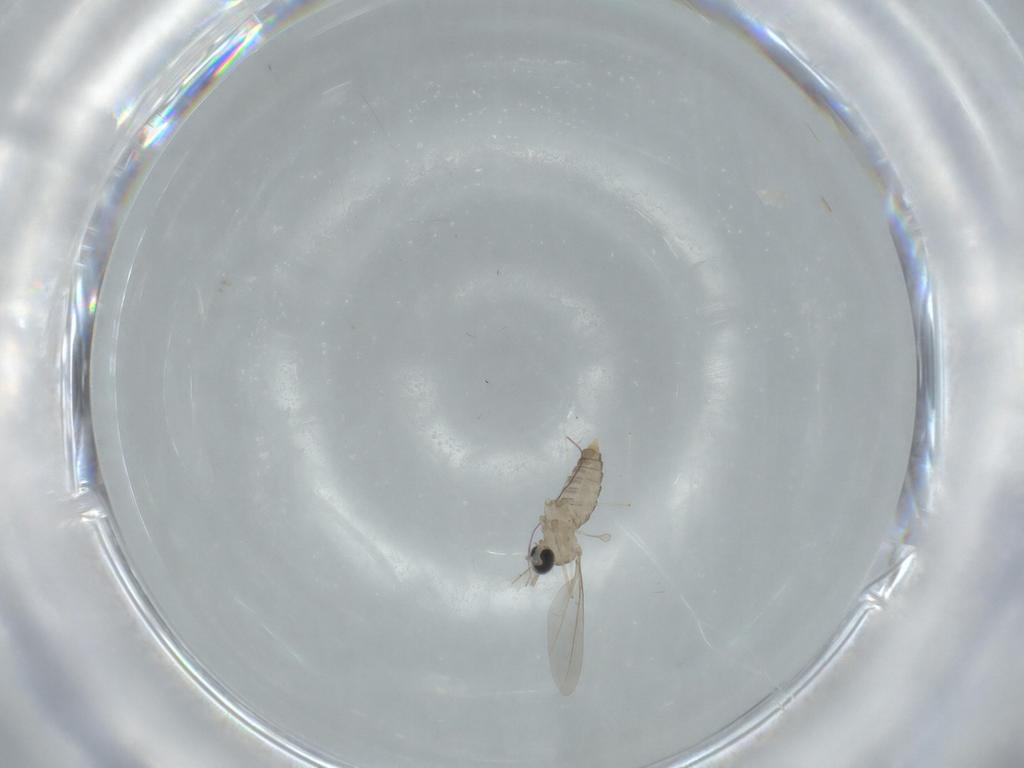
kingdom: Animalia
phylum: Arthropoda
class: Insecta
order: Diptera
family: Cecidomyiidae
